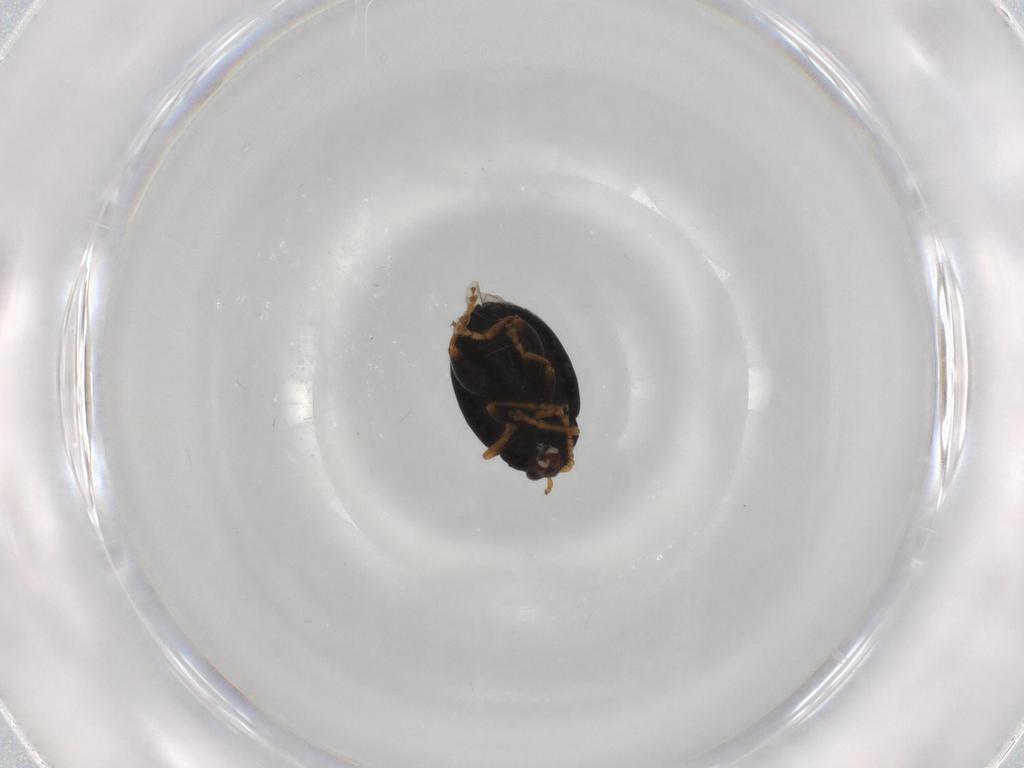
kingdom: Animalia
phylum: Arthropoda
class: Insecta
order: Coleoptera
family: Chrysomelidae
